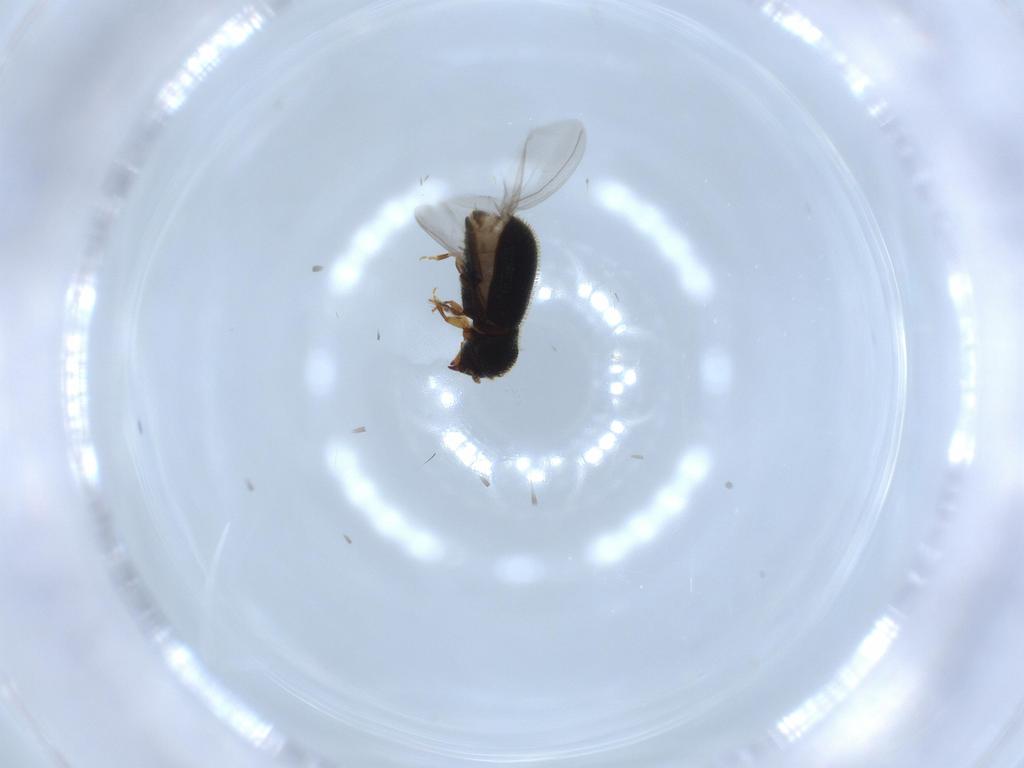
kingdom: Animalia
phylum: Arthropoda
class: Insecta
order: Coleoptera
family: Curculionidae
